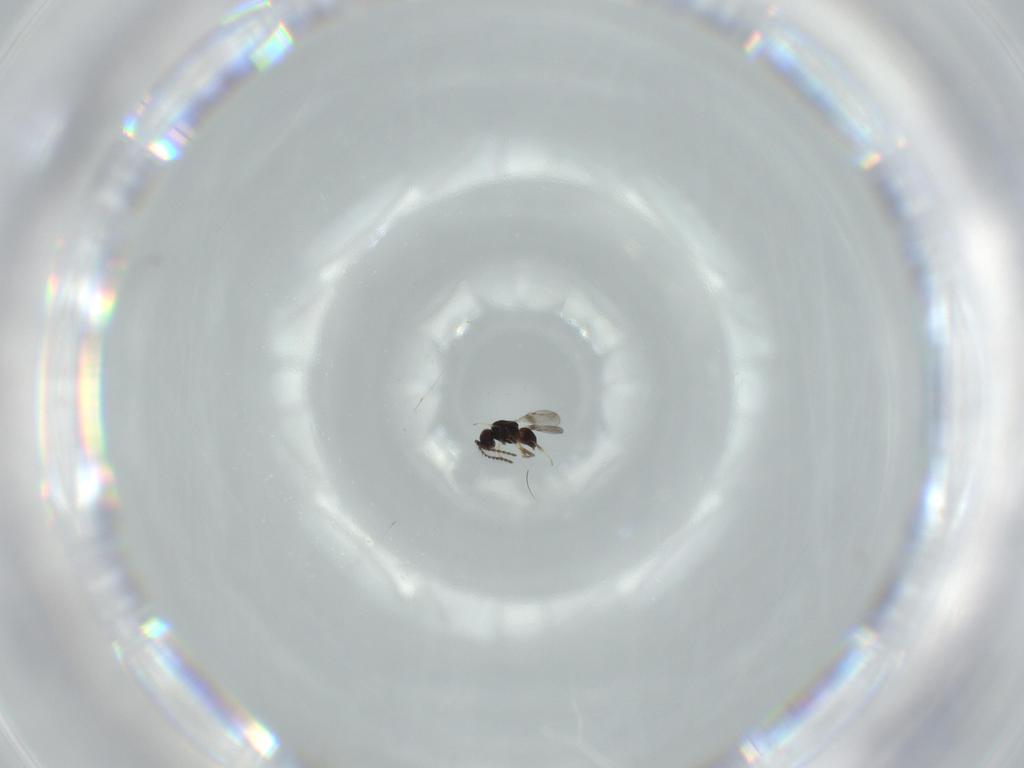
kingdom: Animalia
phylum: Arthropoda
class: Insecta
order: Hymenoptera
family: Ceraphronidae
